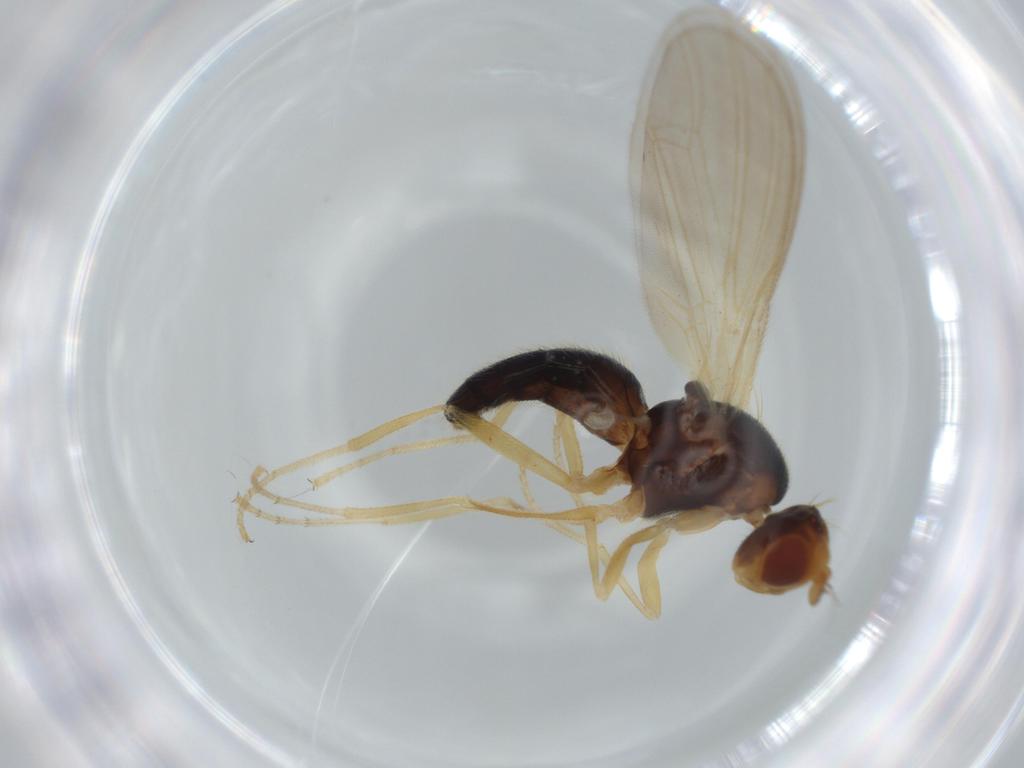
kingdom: Animalia
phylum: Arthropoda
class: Insecta
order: Diptera
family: Psilidae
